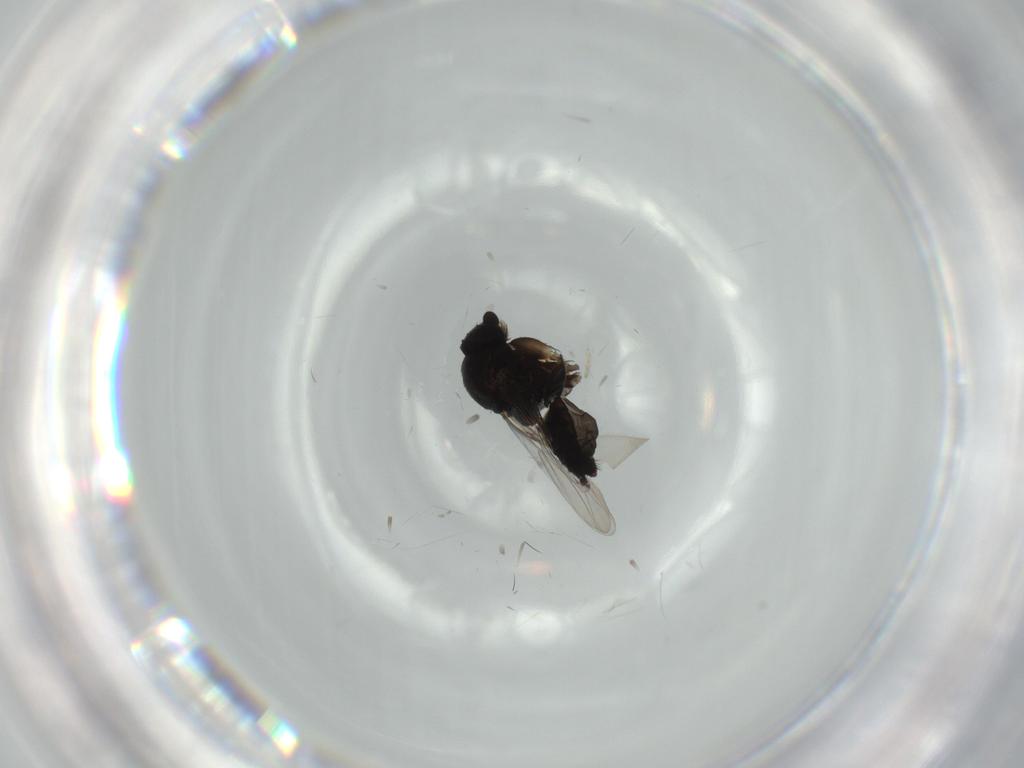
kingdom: Animalia
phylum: Arthropoda
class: Insecta
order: Diptera
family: Cecidomyiidae
